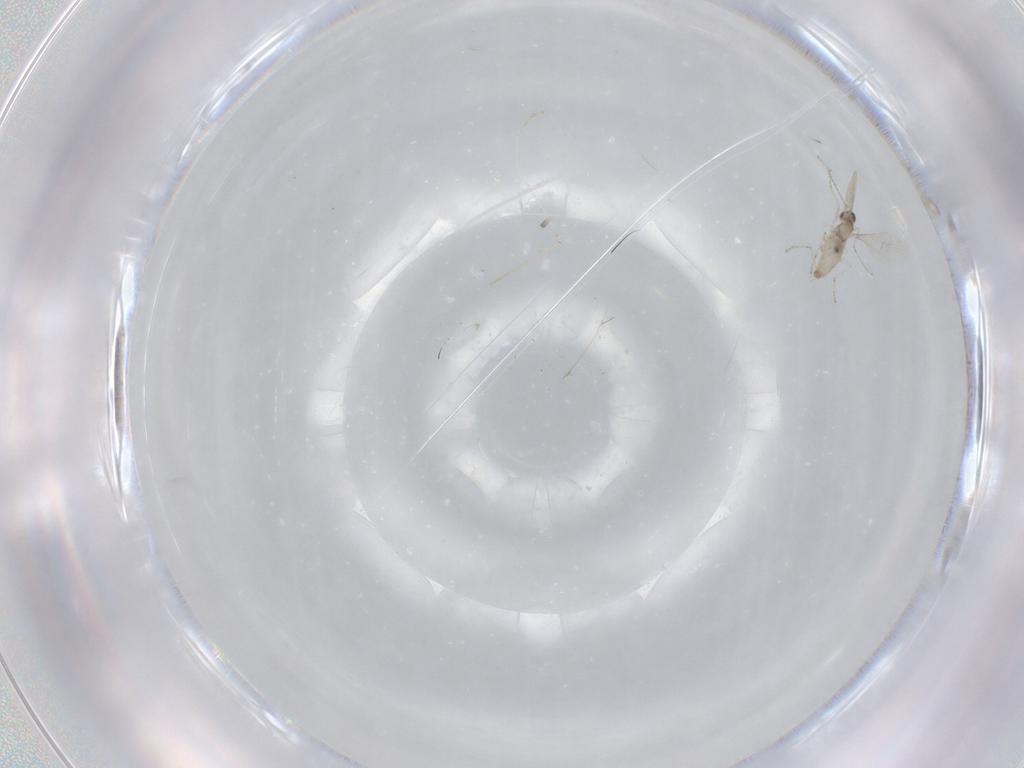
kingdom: Animalia
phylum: Arthropoda
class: Insecta
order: Diptera
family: Cecidomyiidae
